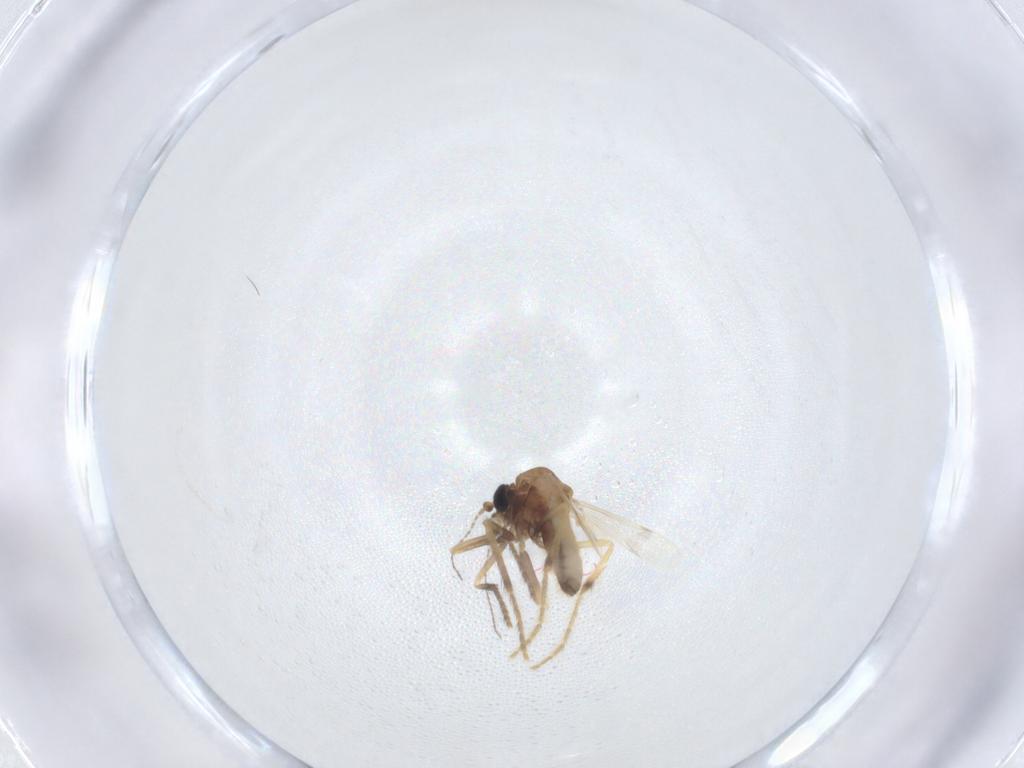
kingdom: Animalia
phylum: Arthropoda
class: Insecta
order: Diptera
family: Corethrellidae
